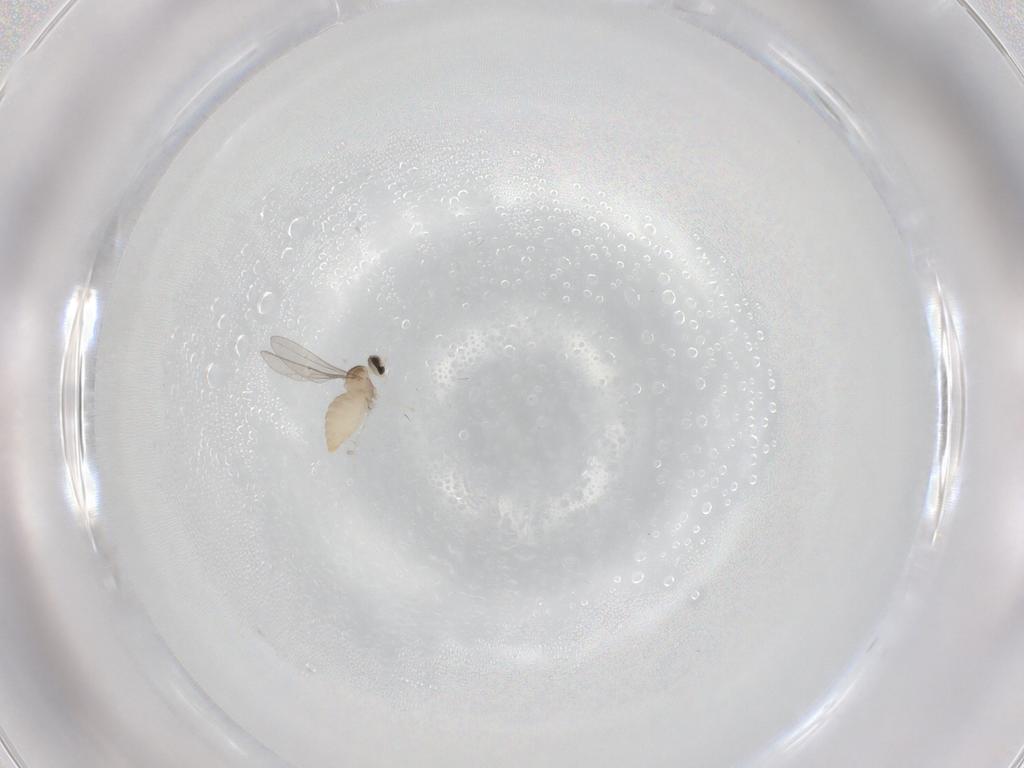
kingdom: Animalia
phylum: Arthropoda
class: Insecta
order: Diptera
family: Cecidomyiidae
